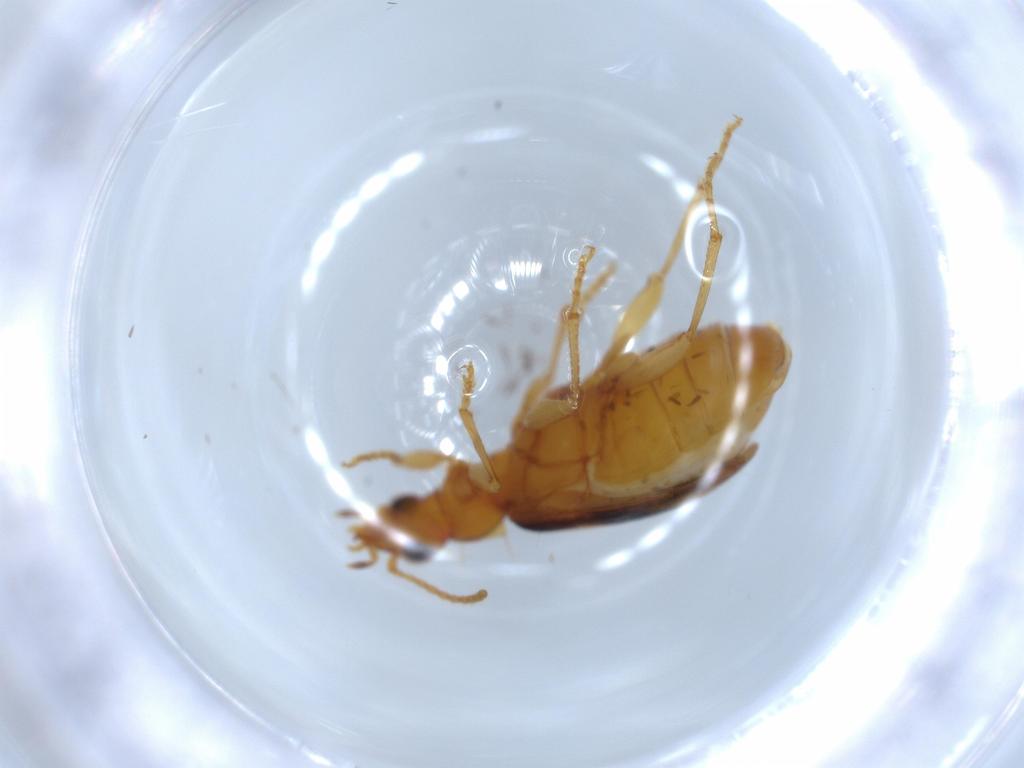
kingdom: Animalia
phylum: Arthropoda
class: Insecta
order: Coleoptera
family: Carabidae
